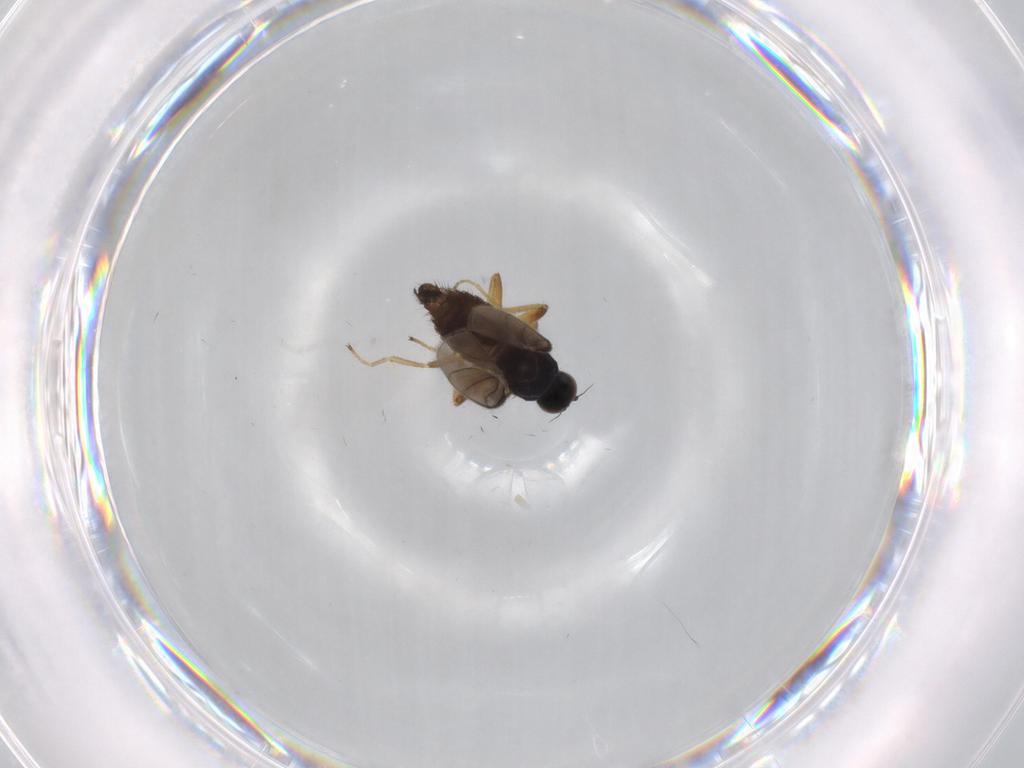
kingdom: Animalia
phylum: Arthropoda
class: Insecta
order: Diptera
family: Hybotidae
